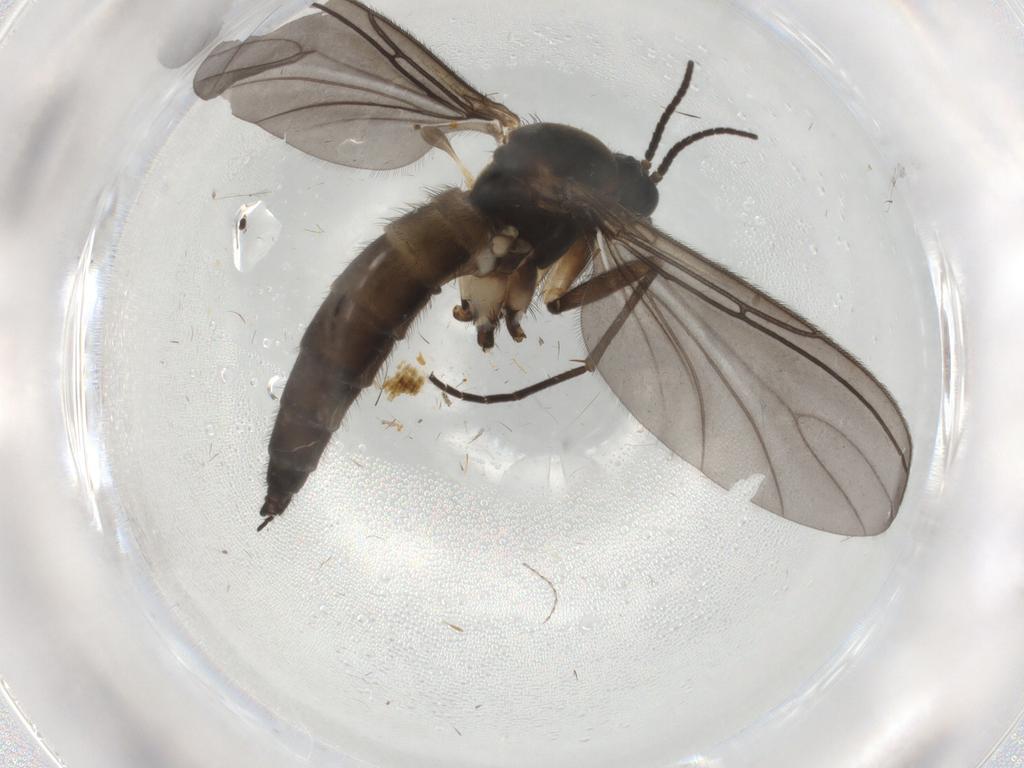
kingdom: Animalia
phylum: Arthropoda
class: Insecta
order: Diptera
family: Sciaridae
